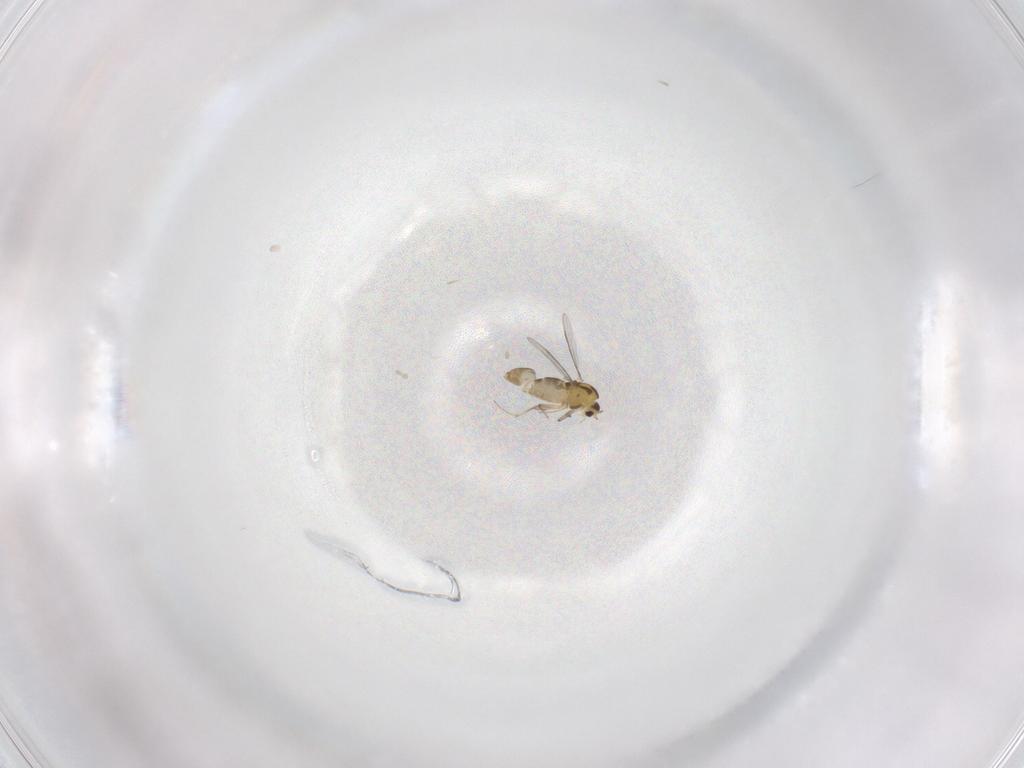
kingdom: Animalia
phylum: Arthropoda
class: Insecta
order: Diptera
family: Chironomidae
